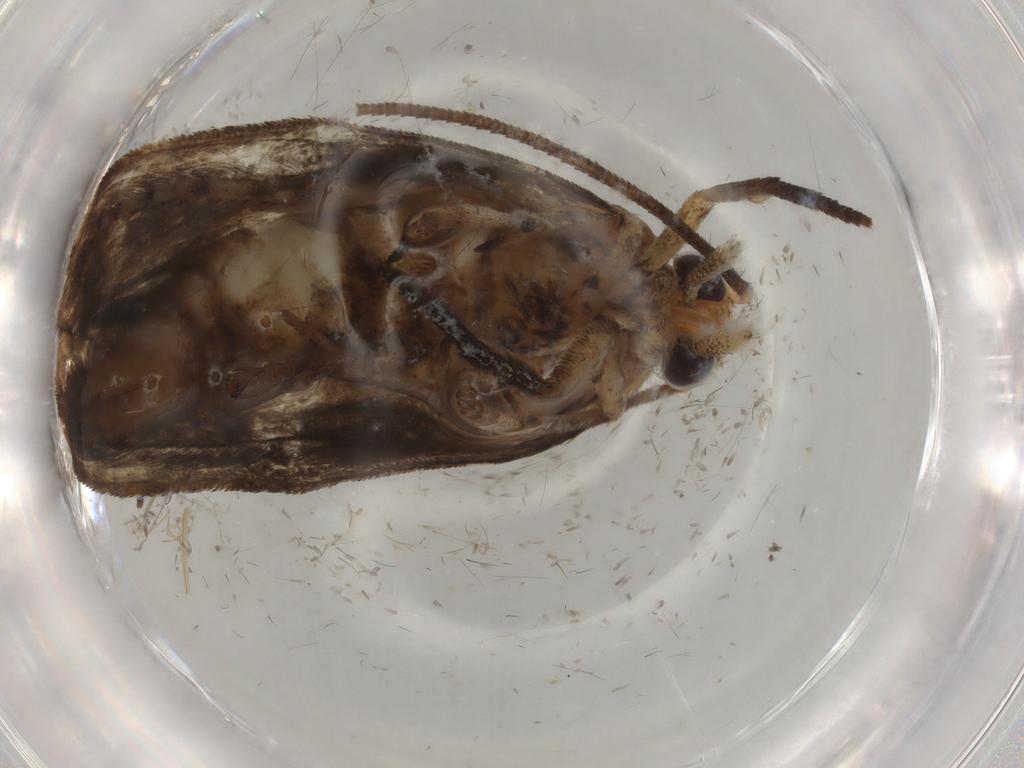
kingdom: Animalia
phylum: Arthropoda
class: Insecta
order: Lepidoptera
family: Yponomeutidae
